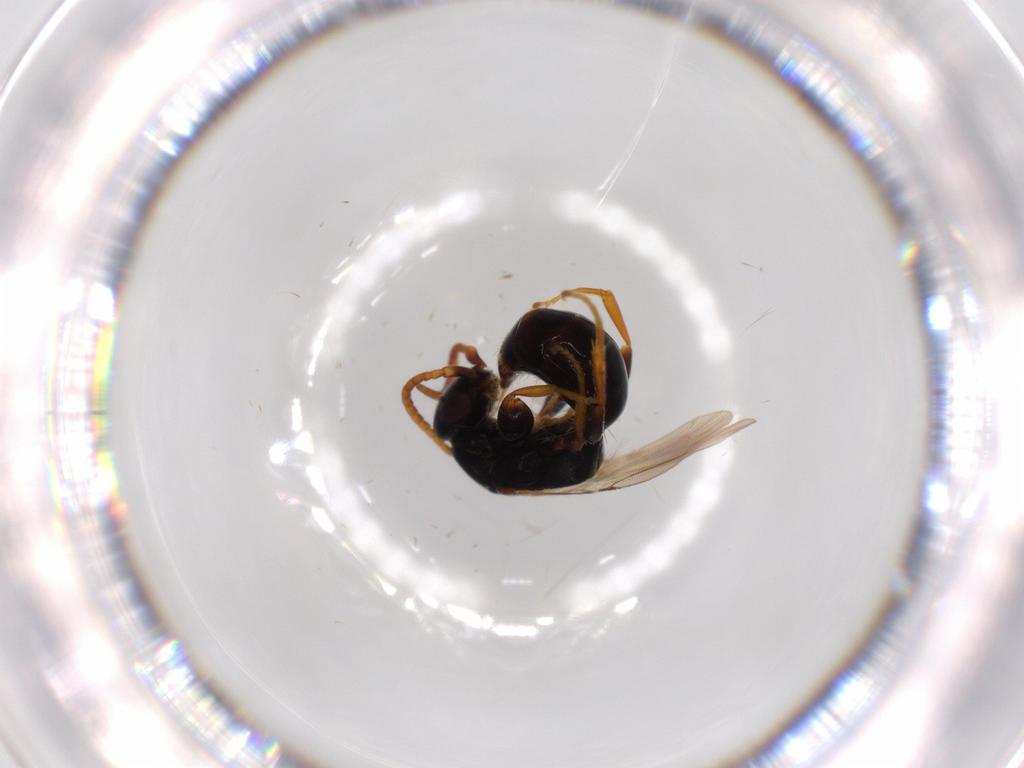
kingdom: Animalia
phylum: Arthropoda
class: Insecta
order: Hymenoptera
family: Bethylidae
